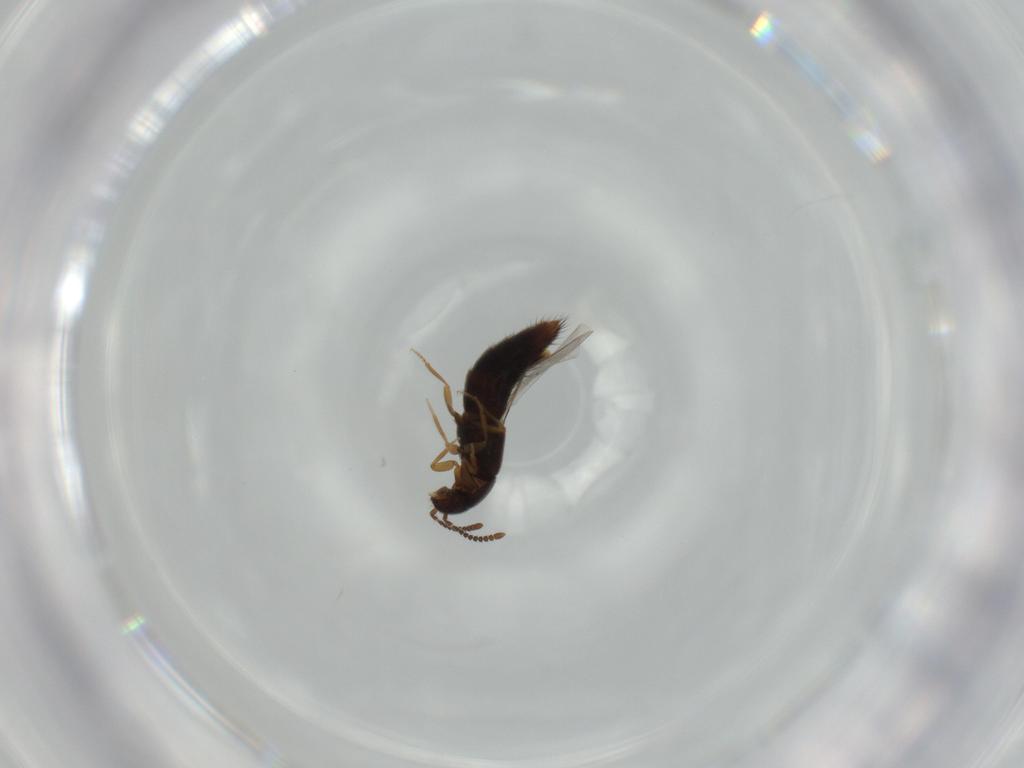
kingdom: Animalia
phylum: Arthropoda
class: Insecta
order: Coleoptera
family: Staphylinidae
